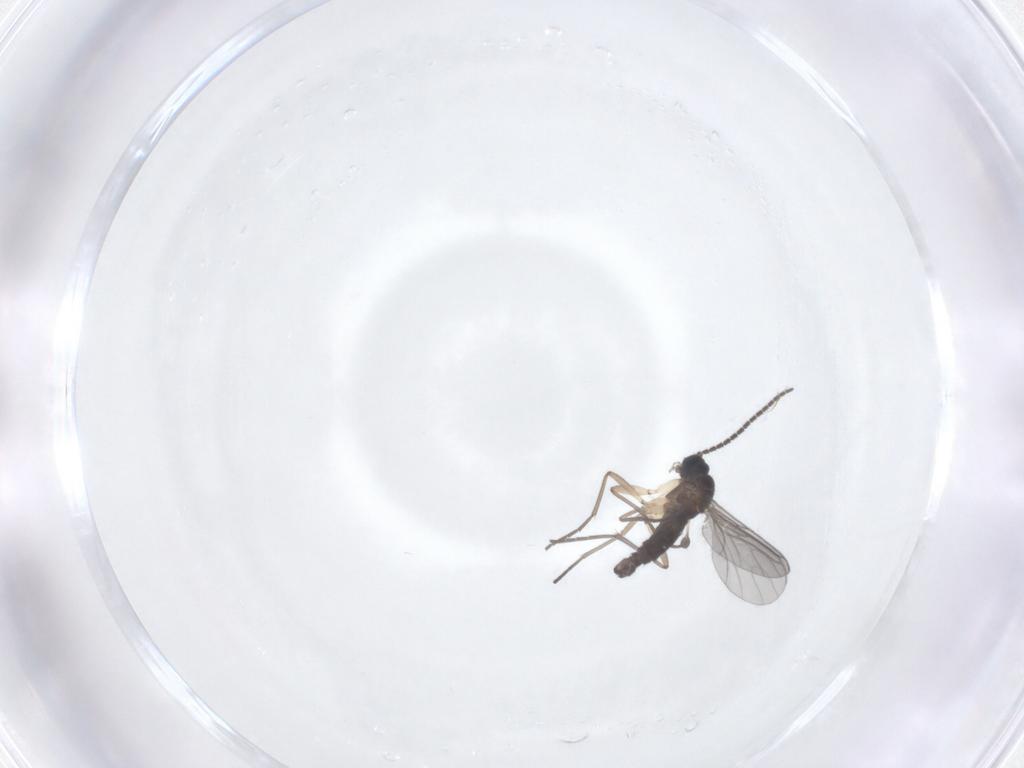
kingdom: Animalia
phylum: Arthropoda
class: Insecta
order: Diptera
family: Sciaridae
